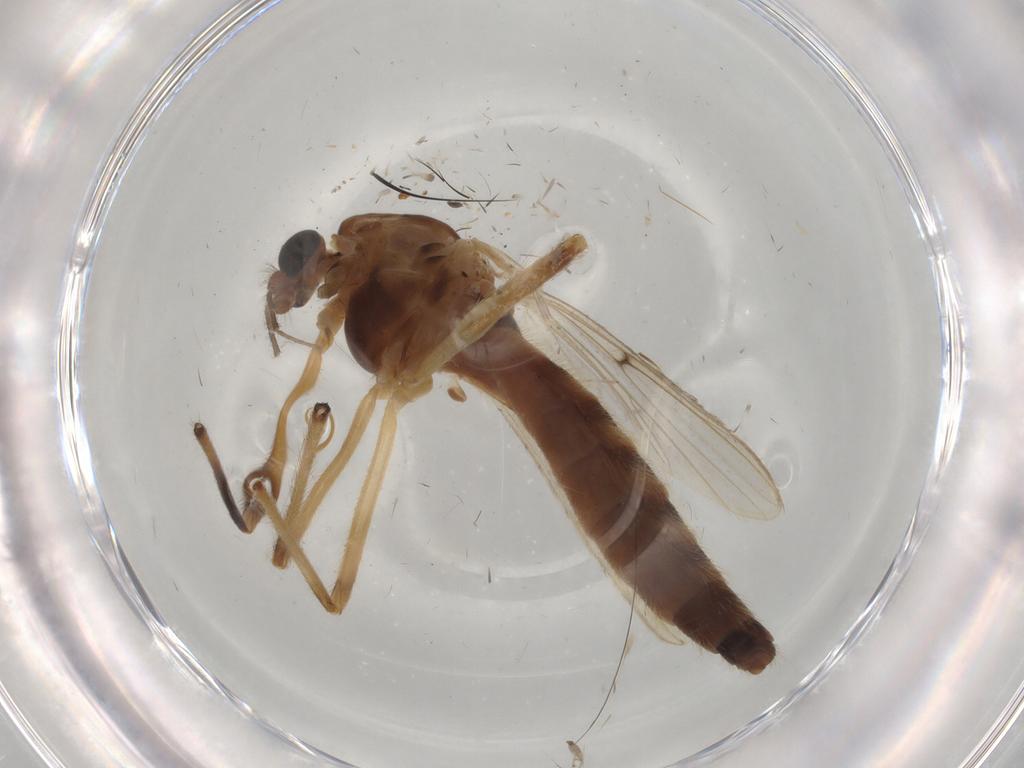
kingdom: Animalia
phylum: Arthropoda
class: Insecta
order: Diptera
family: Chironomidae
